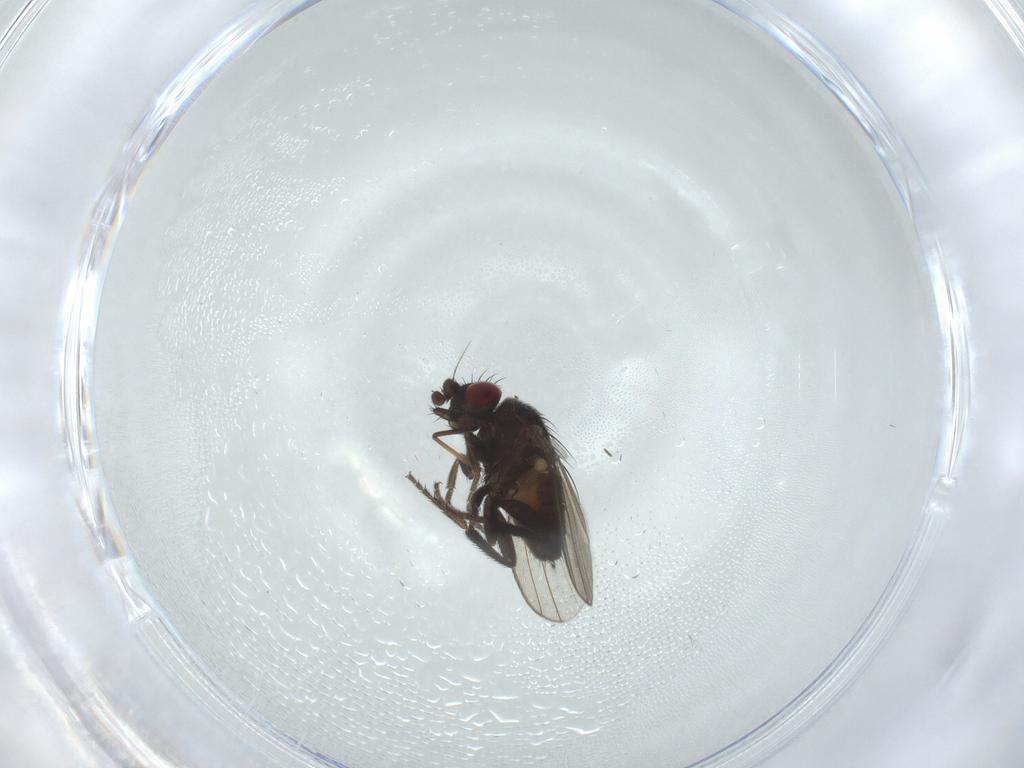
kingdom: Animalia
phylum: Arthropoda
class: Insecta
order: Diptera
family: Milichiidae
